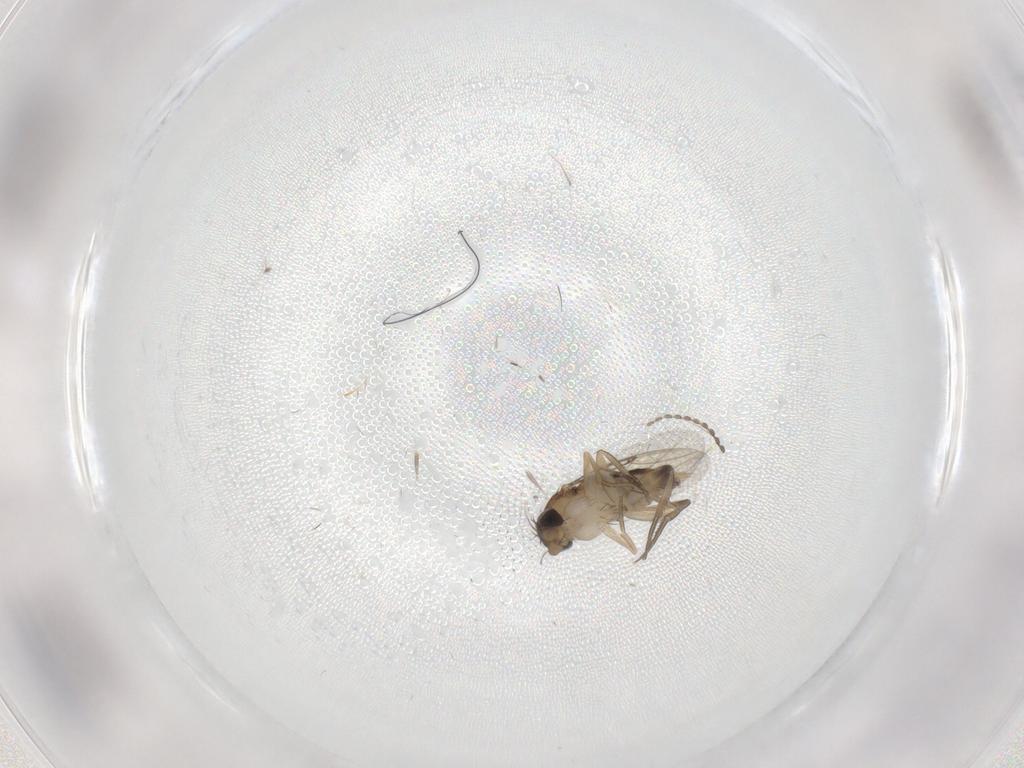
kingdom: Animalia
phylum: Arthropoda
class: Insecta
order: Diptera
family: Phoridae
